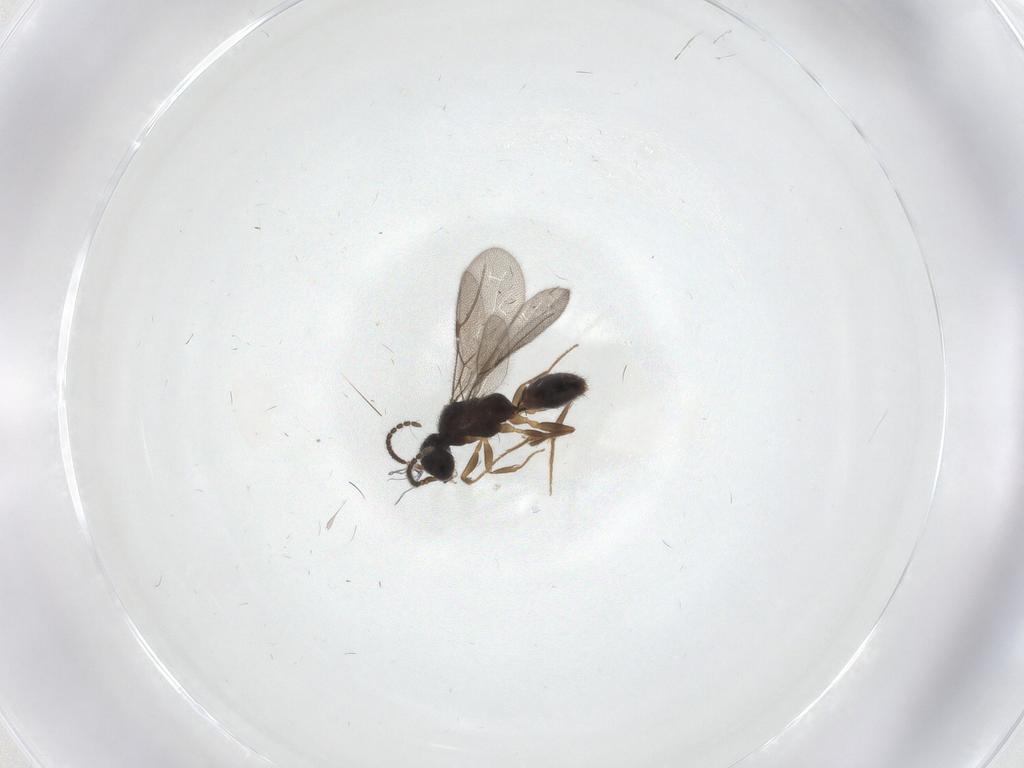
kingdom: Animalia
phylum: Arthropoda
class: Insecta
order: Hymenoptera
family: Bethylidae
